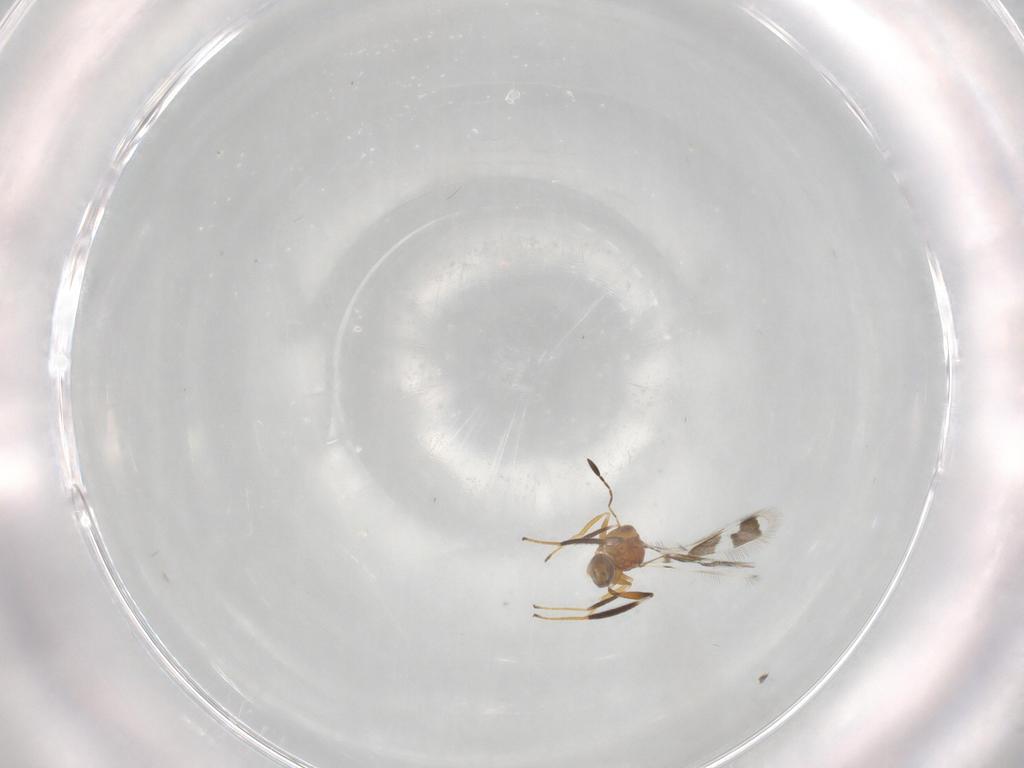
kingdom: Animalia
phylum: Arthropoda
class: Insecta
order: Hymenoptera
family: Mymaridae
